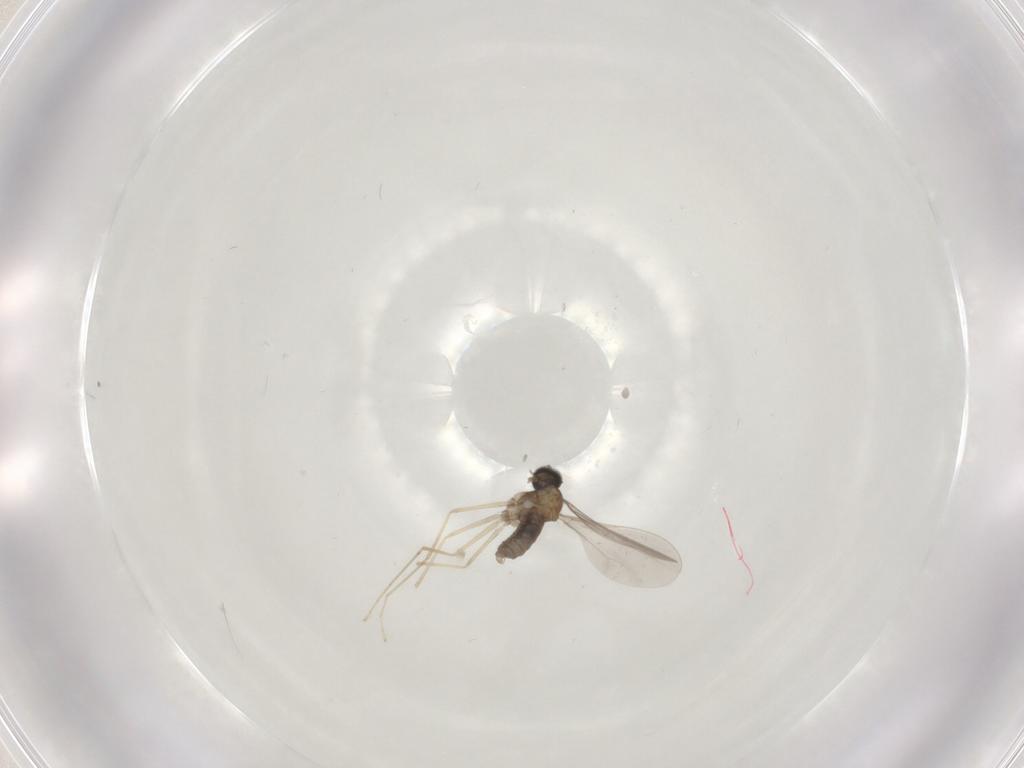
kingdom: Animalia
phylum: Arthropoda
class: Insecta
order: Diptera
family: Cecidomyiidae
